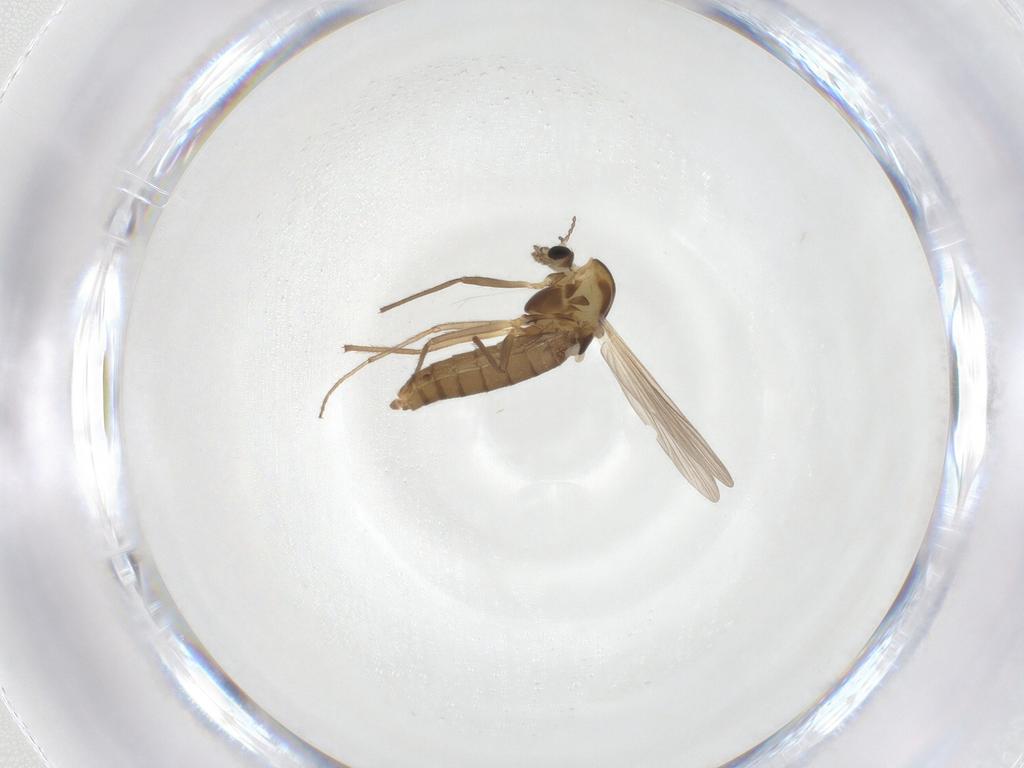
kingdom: Animalia
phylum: Arthropoda
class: Insecta
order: Diptera
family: Chironomidae
